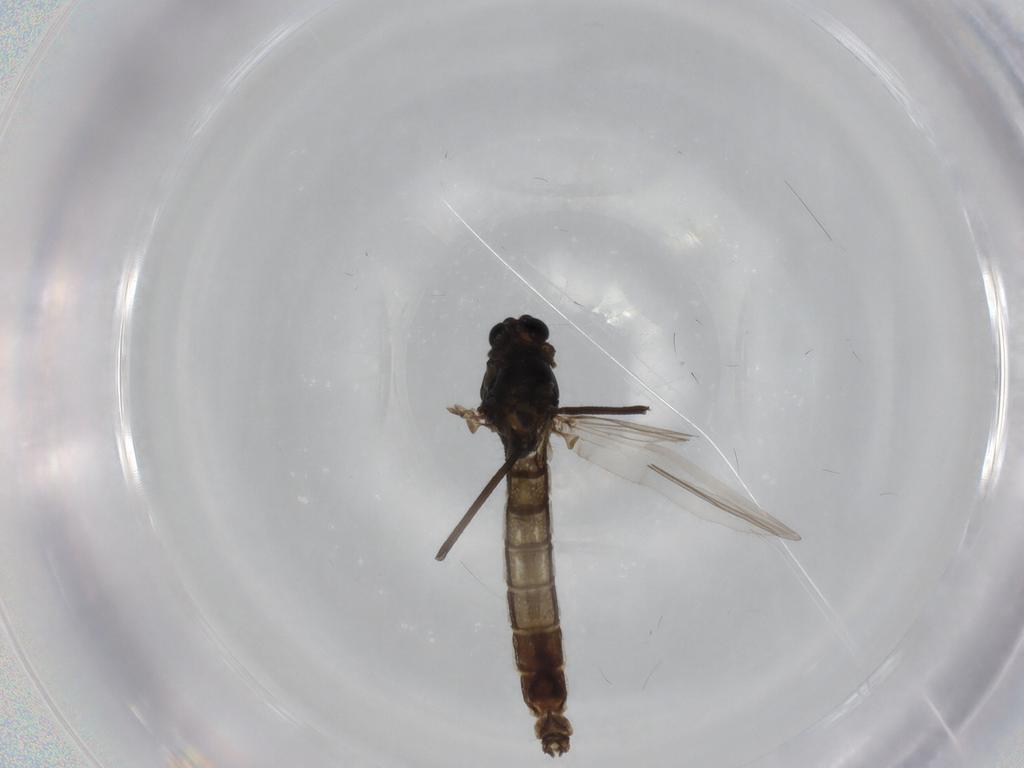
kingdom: Animalia
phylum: Arthropoda
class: Insecta
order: Diptera
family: Chironomidae
